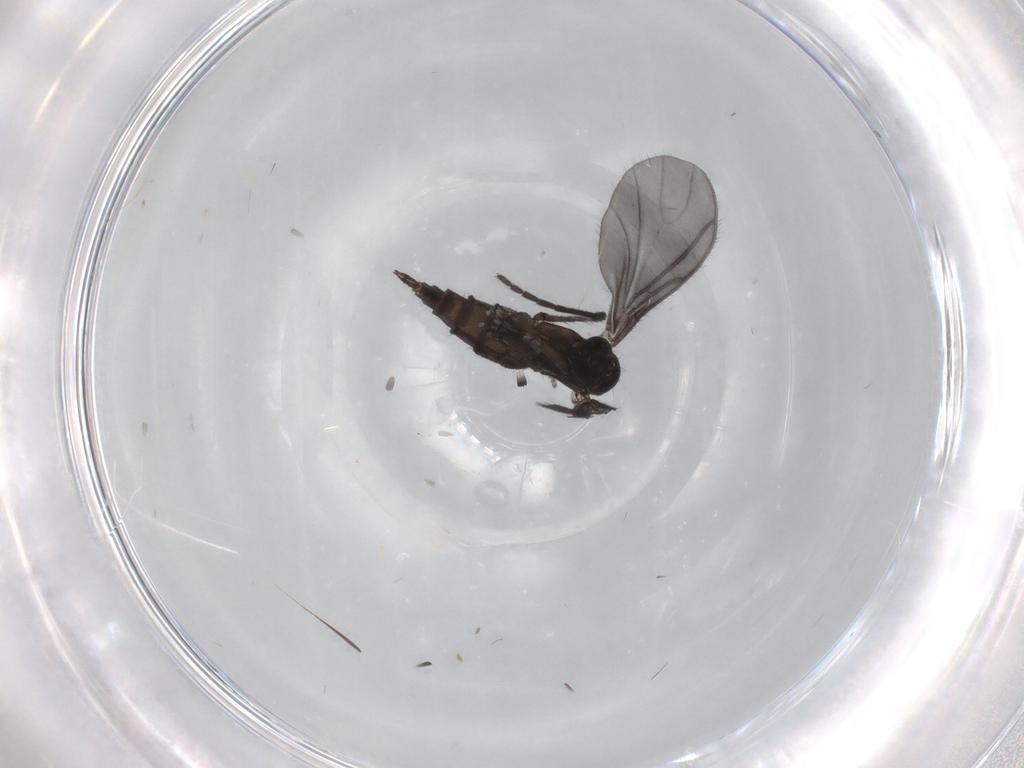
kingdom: Animalia
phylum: Arthropoda
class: Insecta
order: Diptera
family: Sciaridae
